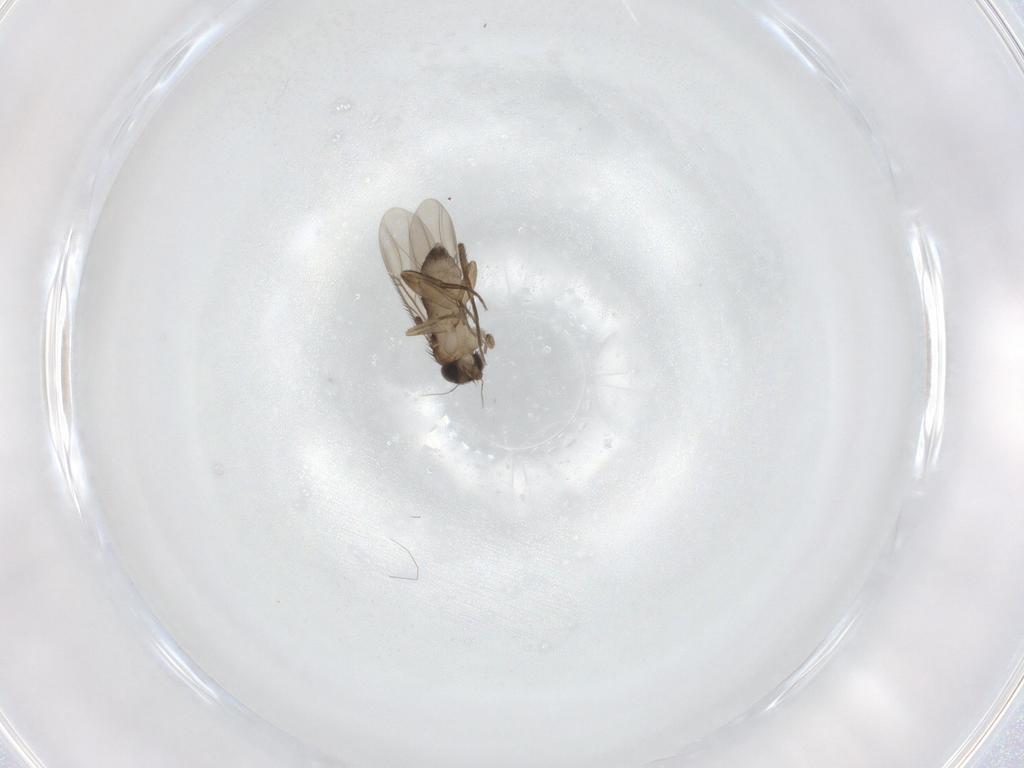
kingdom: Animalia
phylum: Arthropoda
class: Insecta
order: Diptera
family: Phoridae
